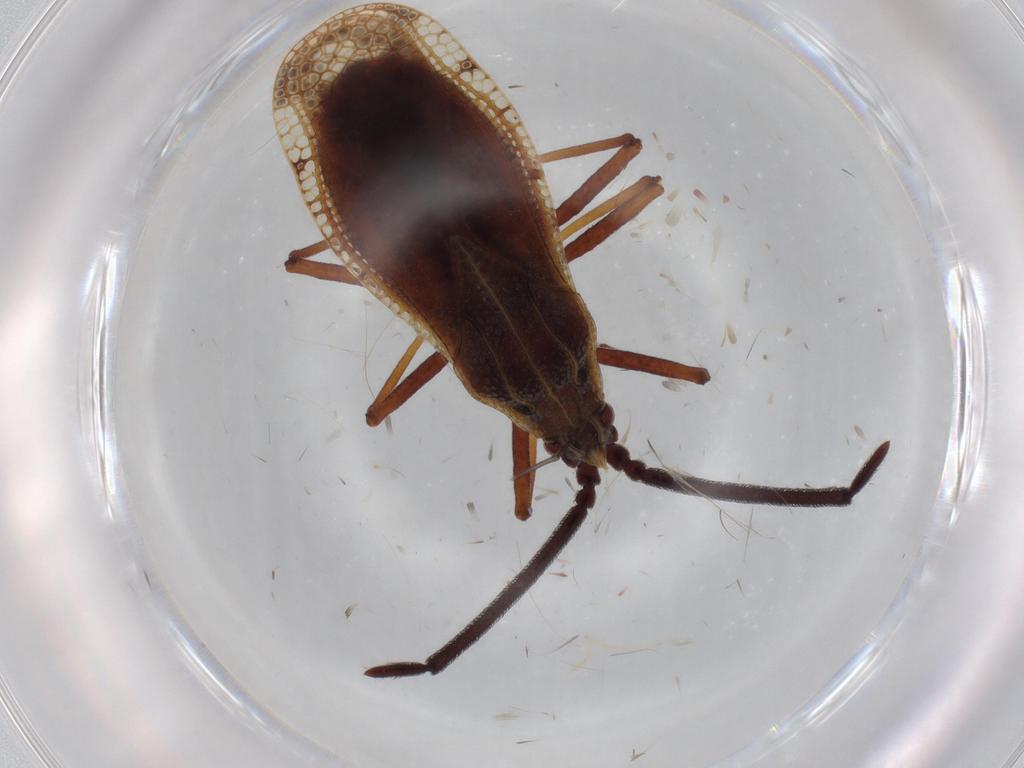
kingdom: Animalia
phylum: Arthropoda
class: Insecta
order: Hemiptera
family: Tingidae
